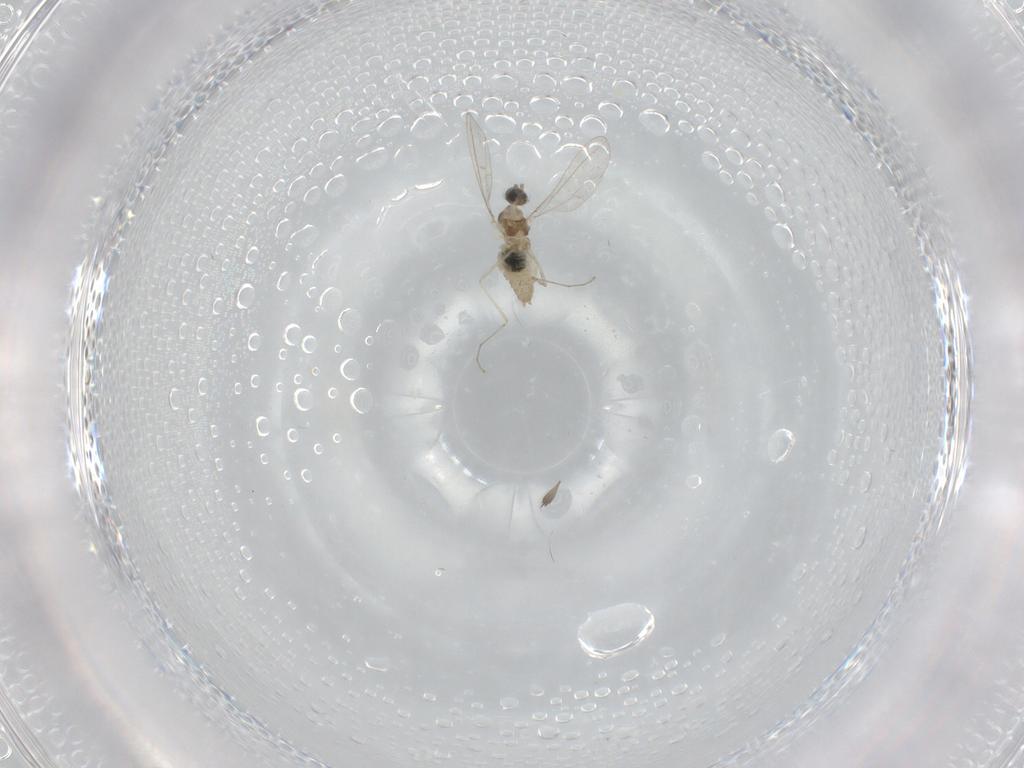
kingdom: Animalia
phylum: Arthropoda
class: Insecta
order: Diptera
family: Cecidomyiidae
